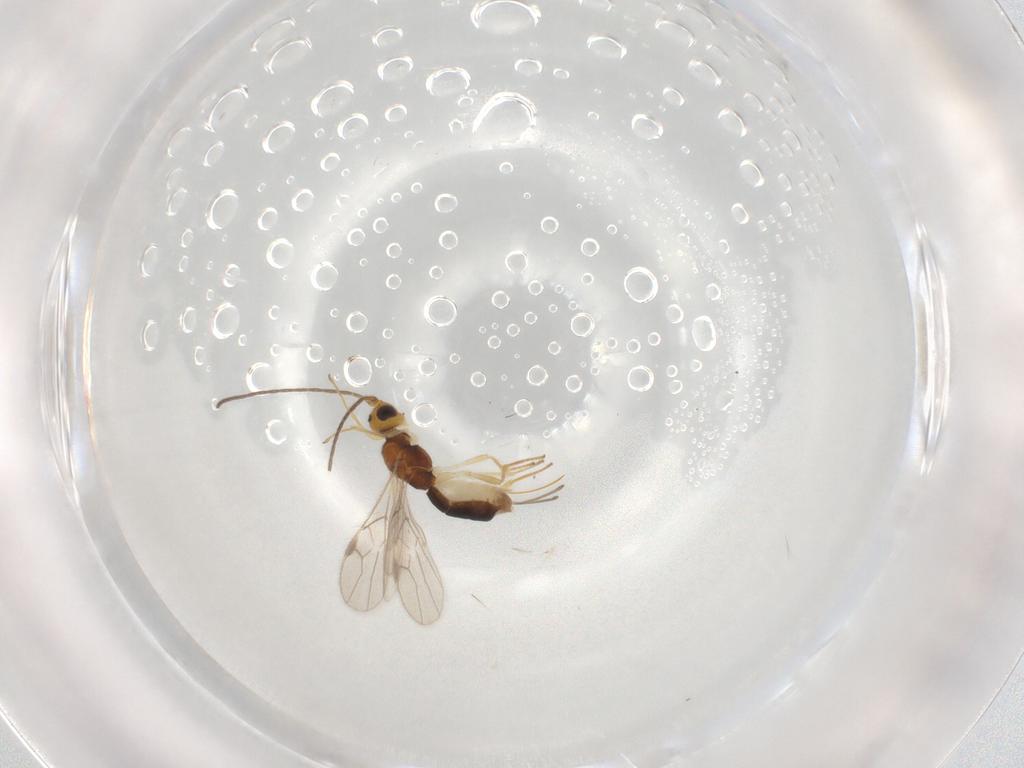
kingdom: Animalia
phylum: Arthropoda
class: Insecta
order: Hymenoptera
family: Braconidae
